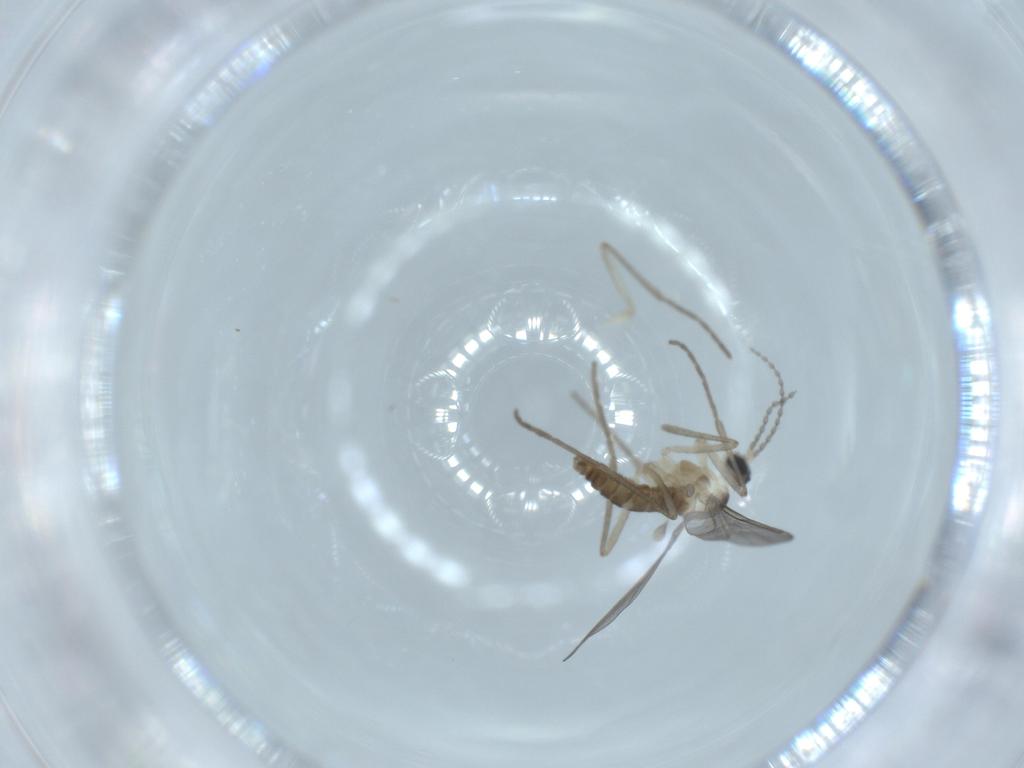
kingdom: Animalia
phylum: Arthropoda
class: Insecta
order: Diptera
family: Cecidomyiidae
